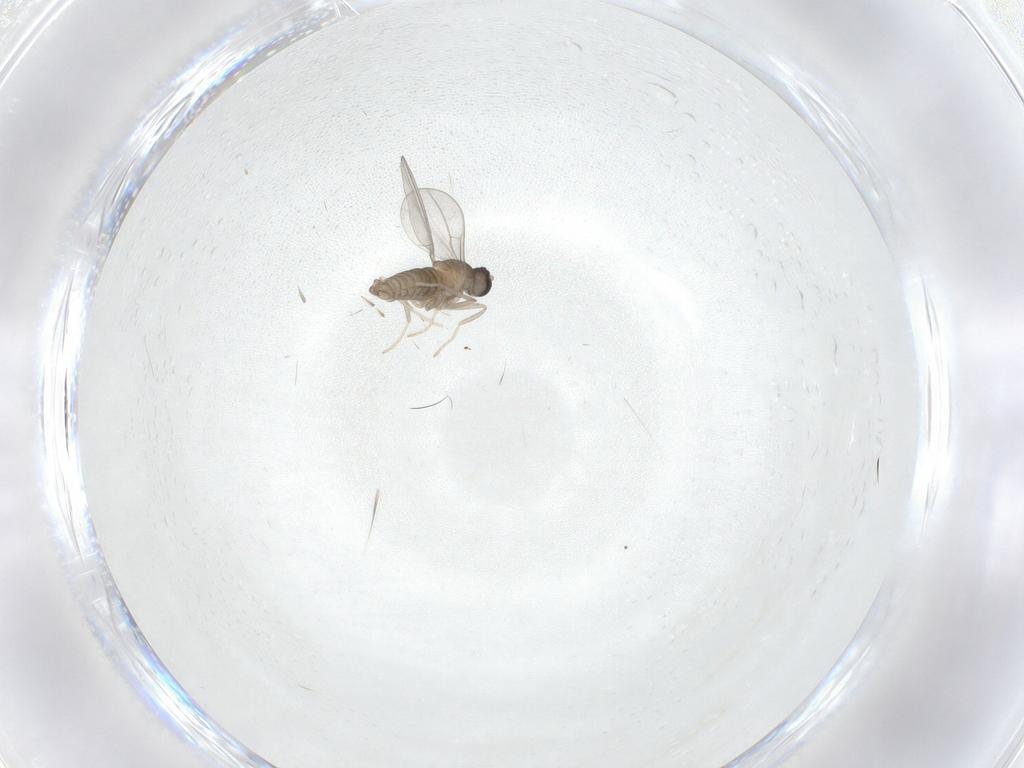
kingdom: Animalia
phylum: Arthropoda
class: Insecta
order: Diptera
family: Chironomidae
